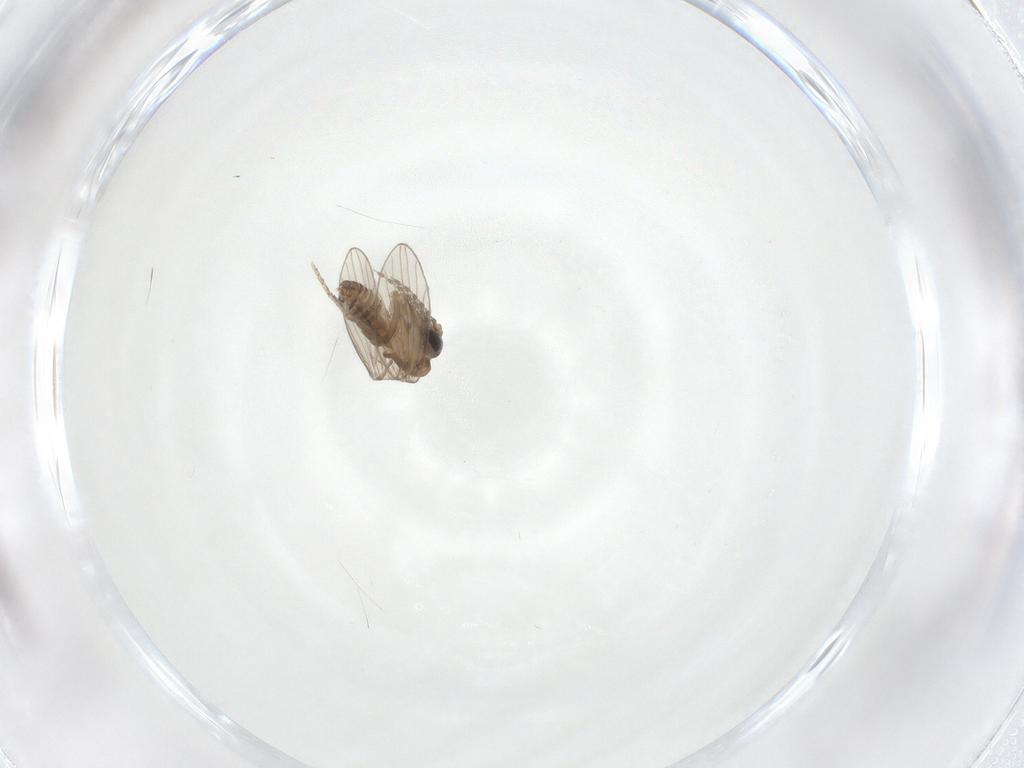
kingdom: Animalia
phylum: Arthropoda
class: Insecta
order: Diptera
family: Psychodidae
